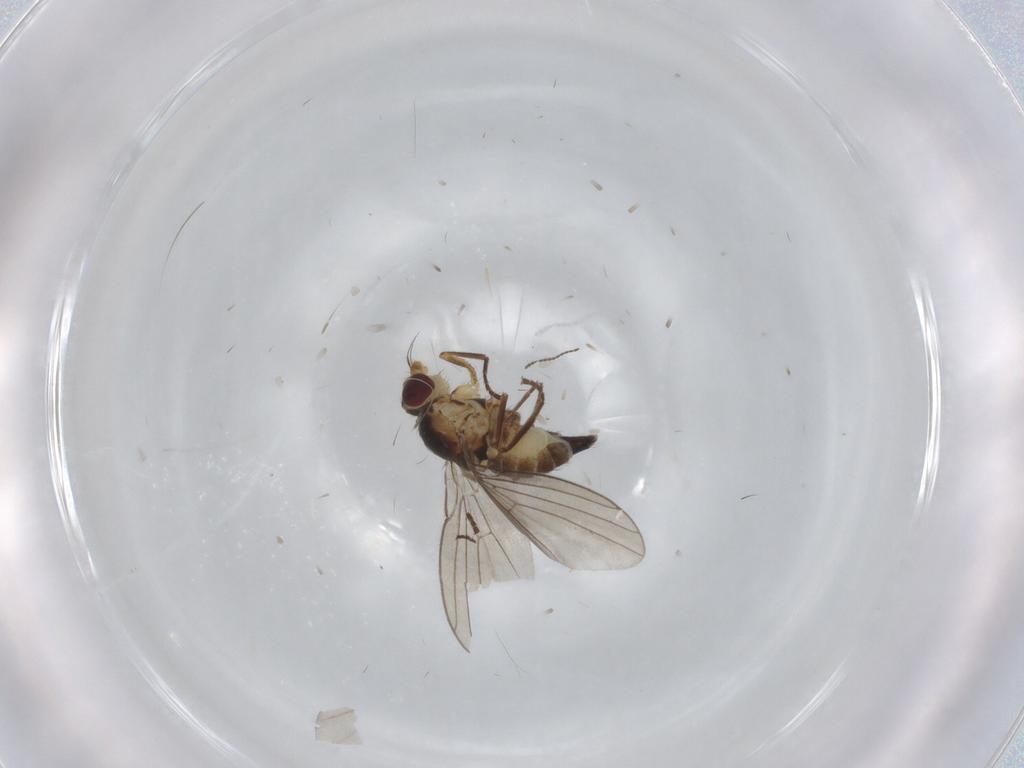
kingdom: Animalia
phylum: Arthropoda
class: Insecta
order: Diptera
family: Agromyzidae
